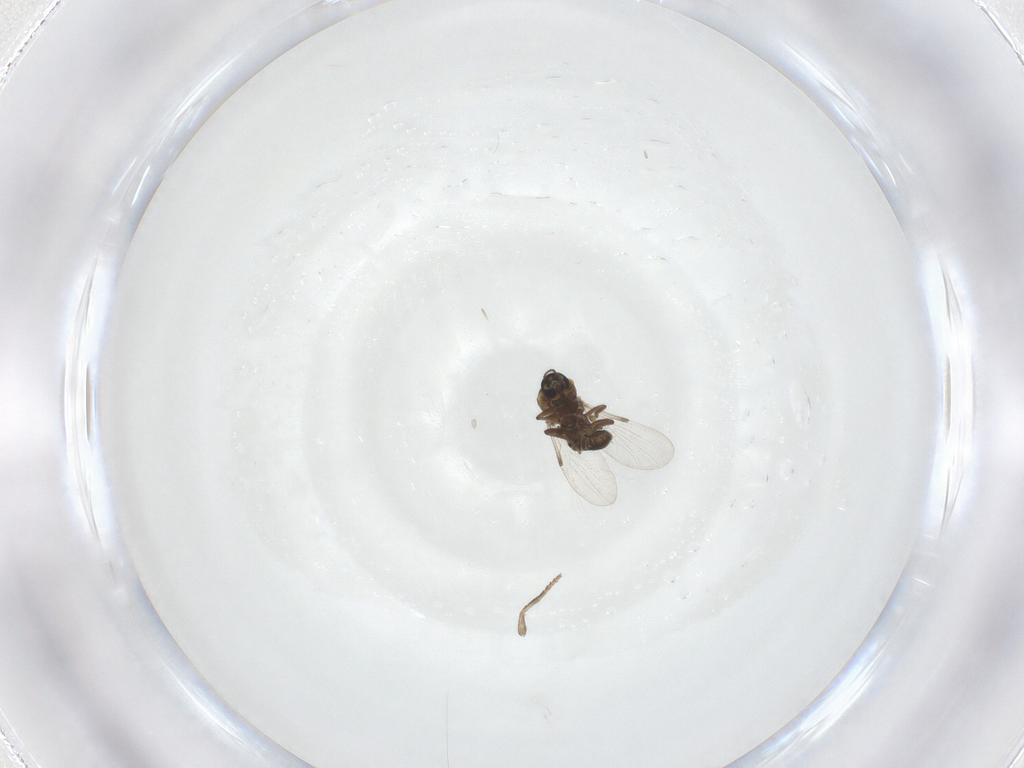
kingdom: Animalia
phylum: Arthropoda
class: Insecta
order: Diptera
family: Ceratopogonidae
